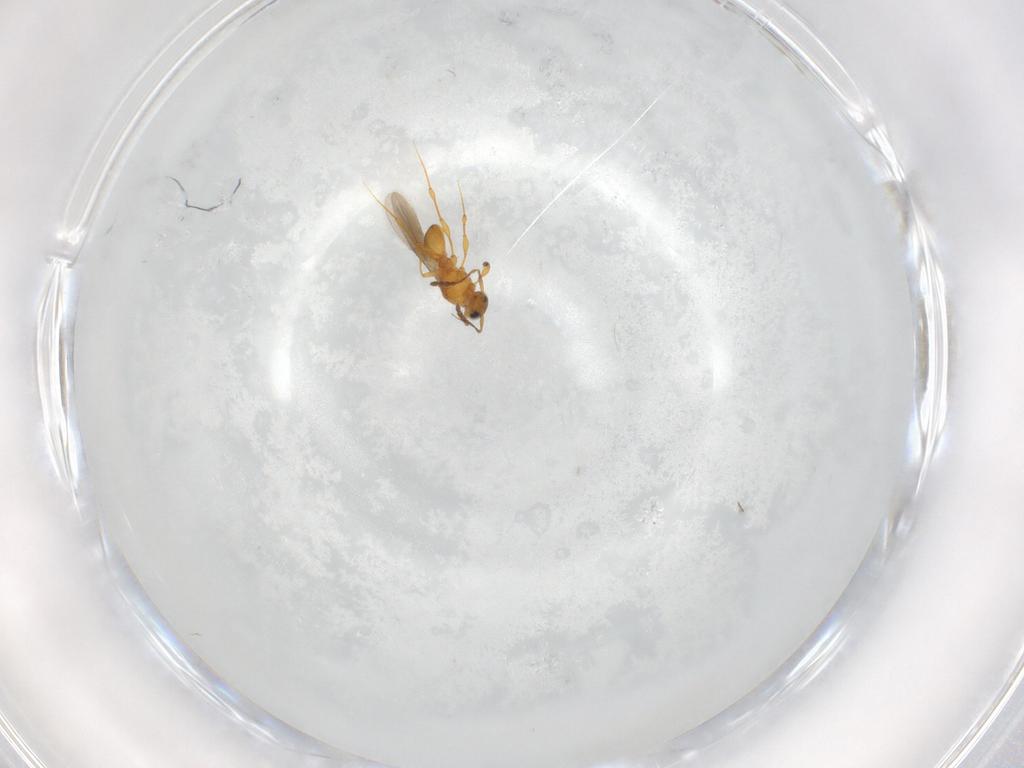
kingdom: Animalia
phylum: Arthropoda
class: Insecta
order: Hymenoptera
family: Platygastridae
